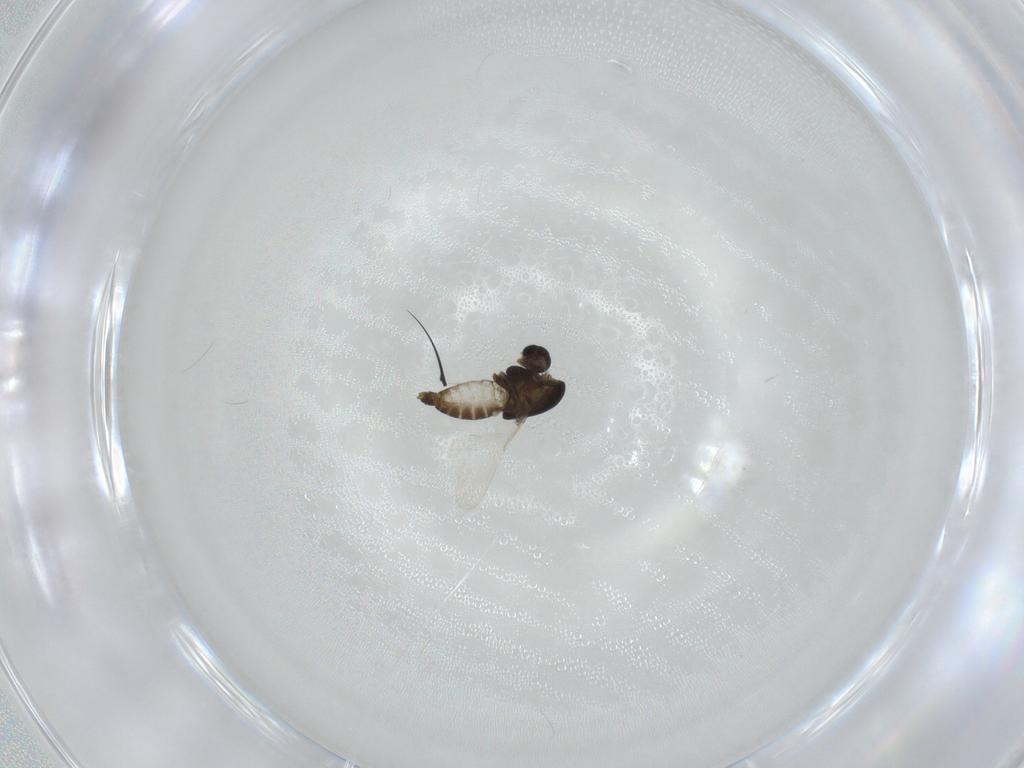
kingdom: Animalia
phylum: Arthropoda
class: Insecta
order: Diptera
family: Chironomidae
